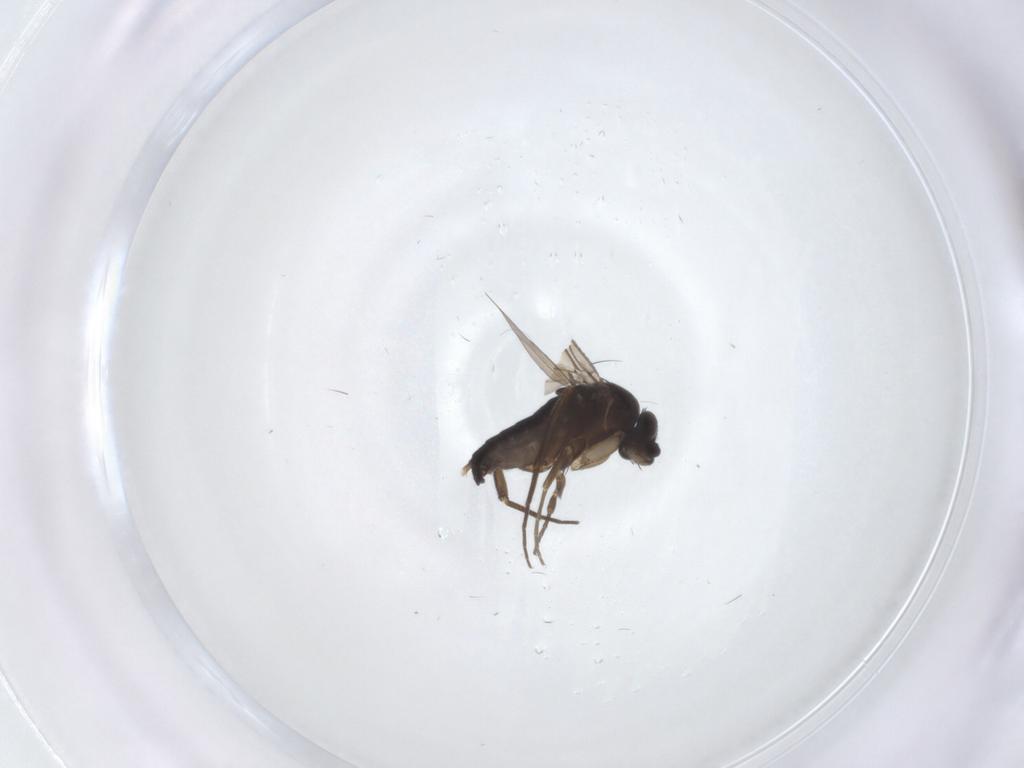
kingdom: Animalia
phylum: Arthropoda
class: Insecta
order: Diptera
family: Phoridae
